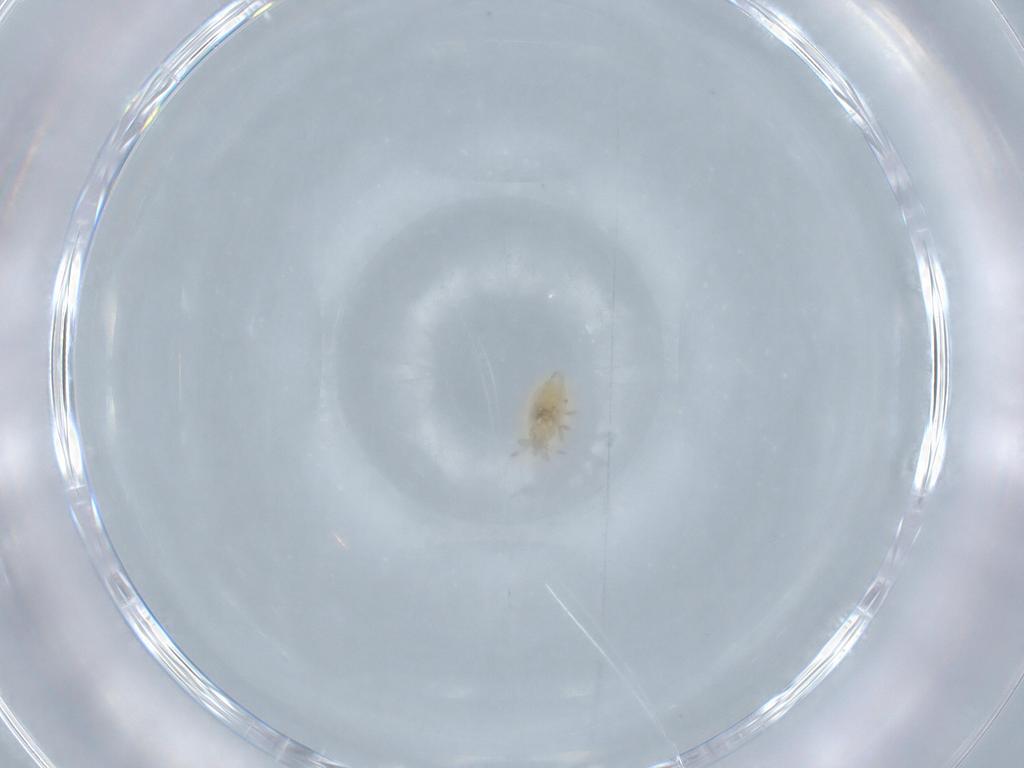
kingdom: Animalia
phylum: Arthropoda
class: Insecta
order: Neuroptera
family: Coniopterygidae
